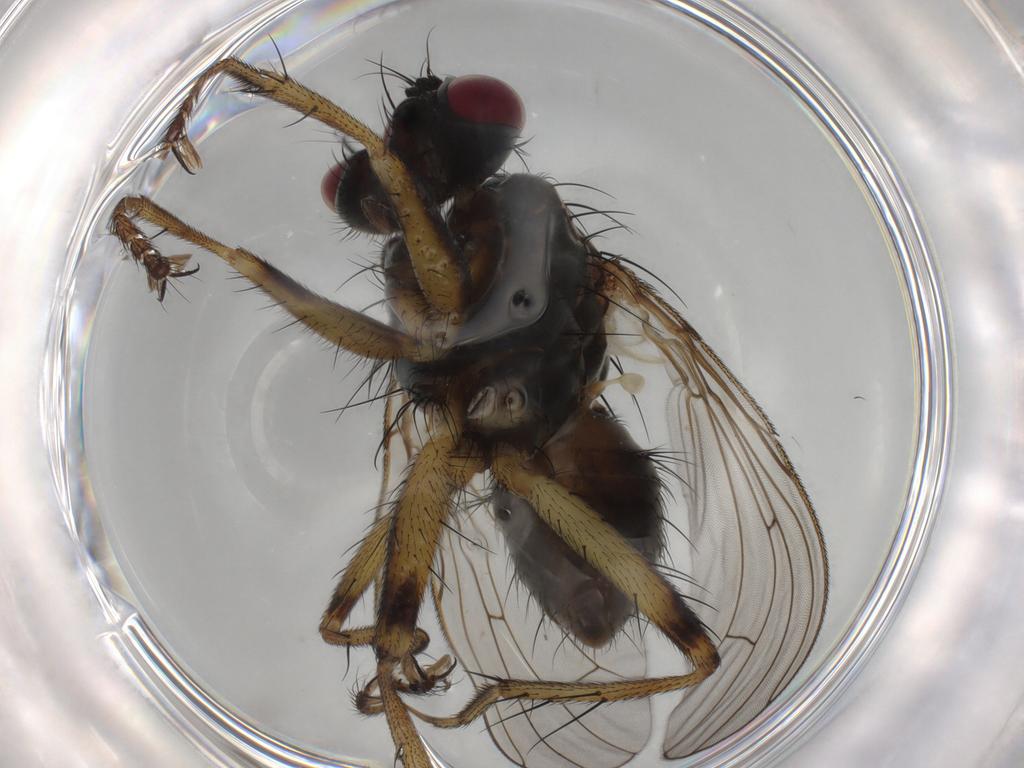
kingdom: Animalia
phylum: Arthropoda
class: Insecta
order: Diptera
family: Muscidae
